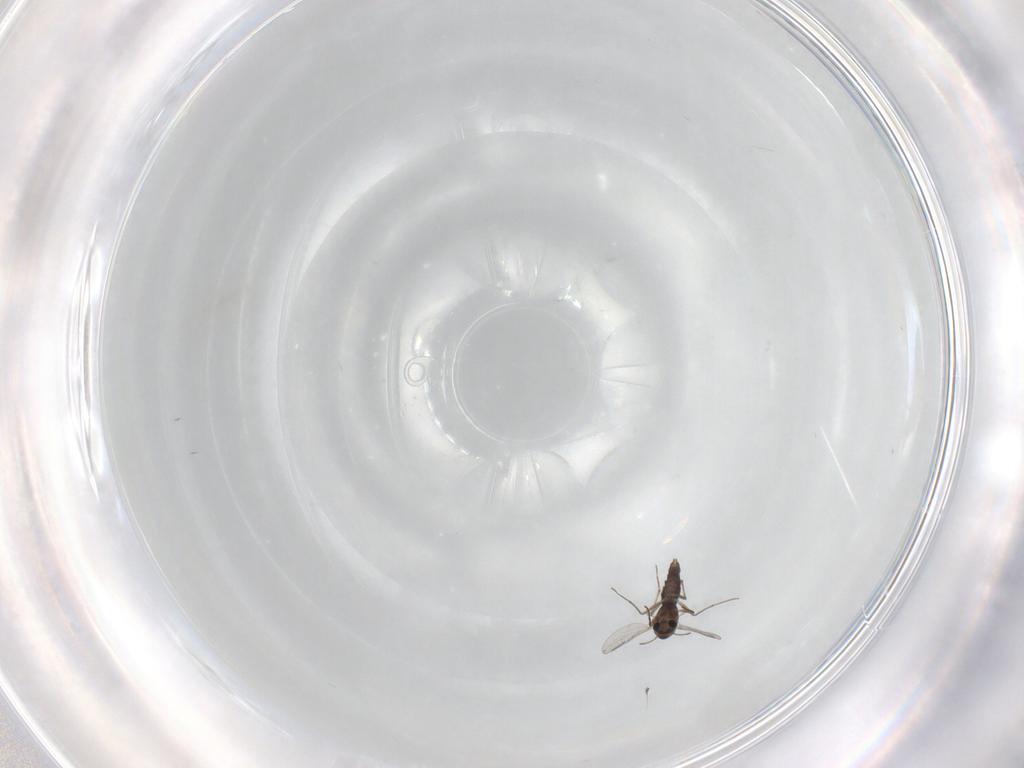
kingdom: Animalia
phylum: Arthropoda
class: Insecta
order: Diptera
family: Chironomidae
